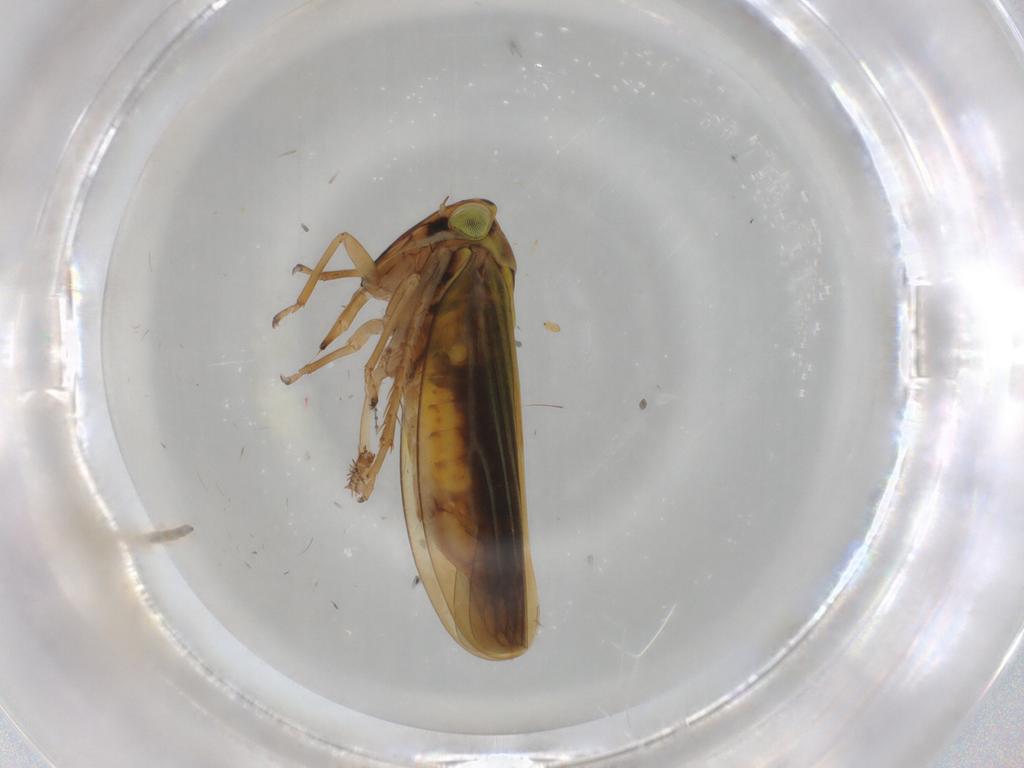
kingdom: Animalia
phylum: Arthropoda
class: Insecta
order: Hemiptera
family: Cicadellidae
